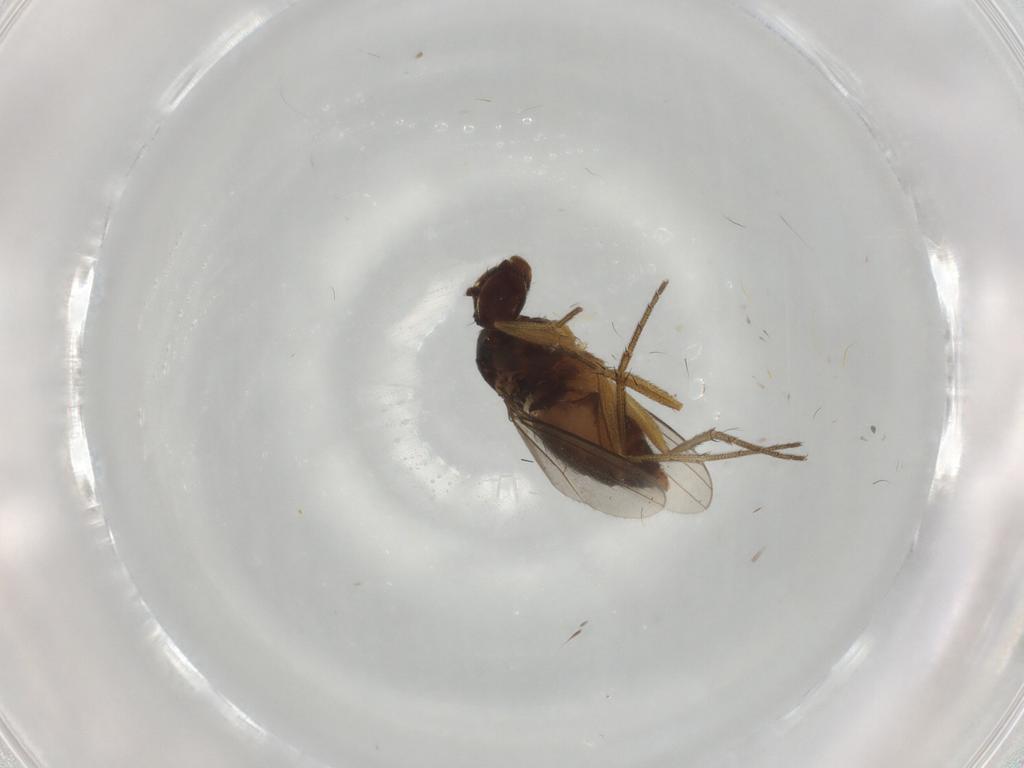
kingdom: Animalia
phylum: Arthropoda
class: Insecta
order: Diptera
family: Dolichopodidae
